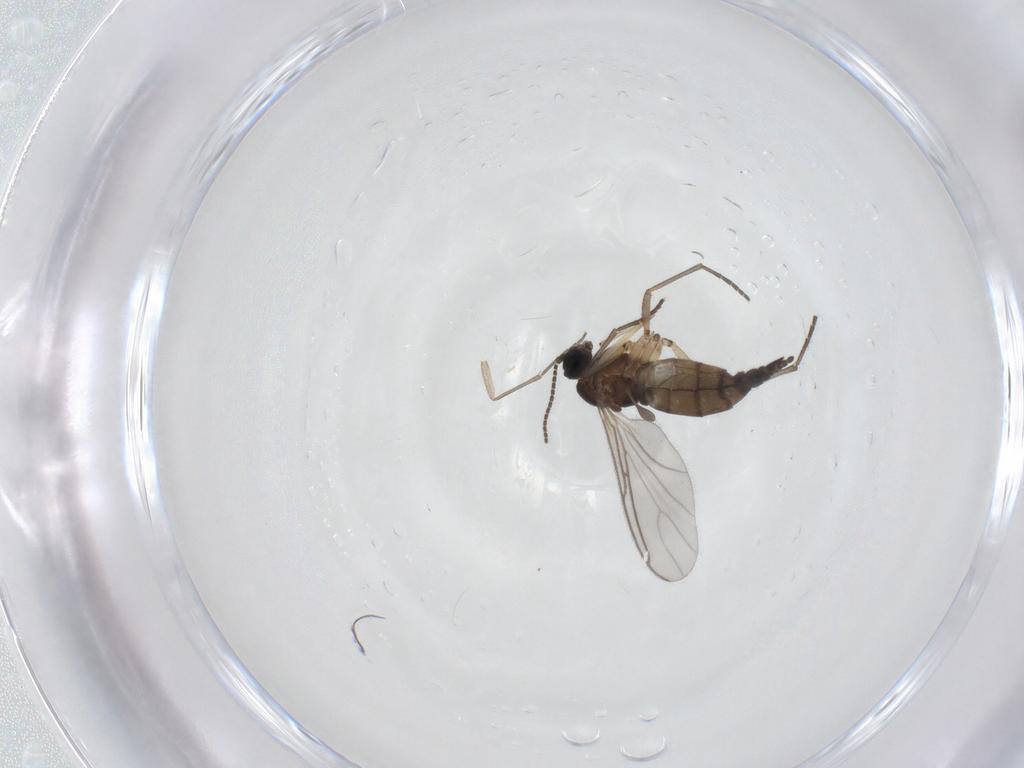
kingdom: Animalia
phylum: Arthropoda
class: Insecta
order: Diptera
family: Sciaridae
